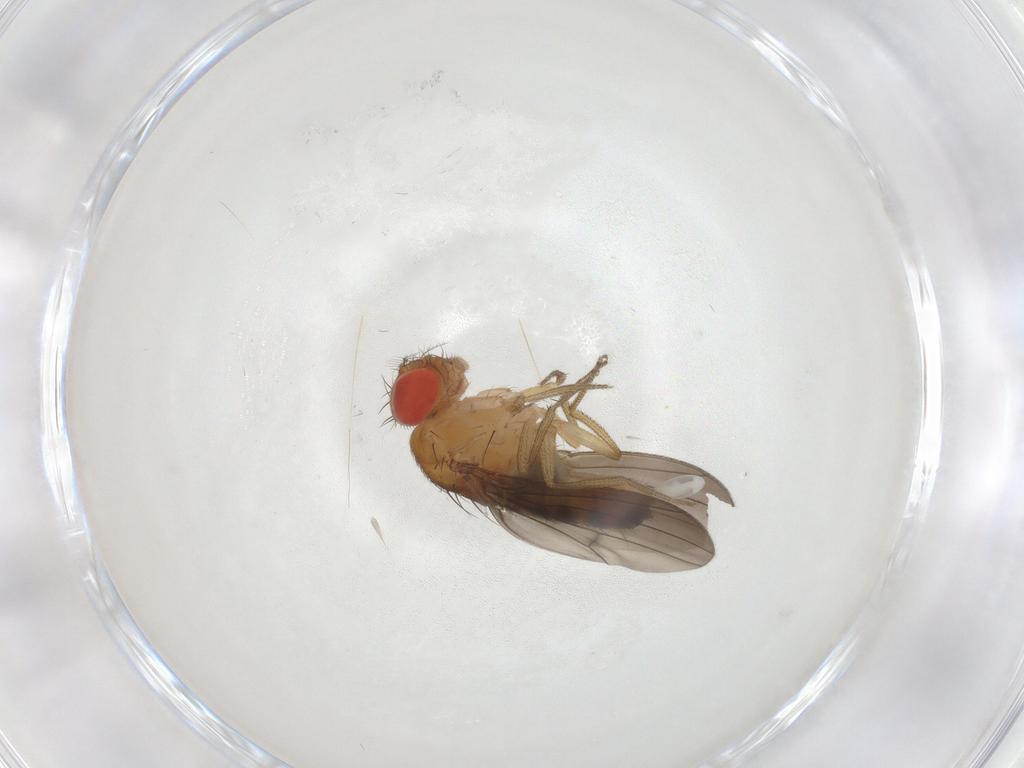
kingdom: Animalia
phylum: Arthropoda
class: Insecta
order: Diptera
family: Drosophilidae
